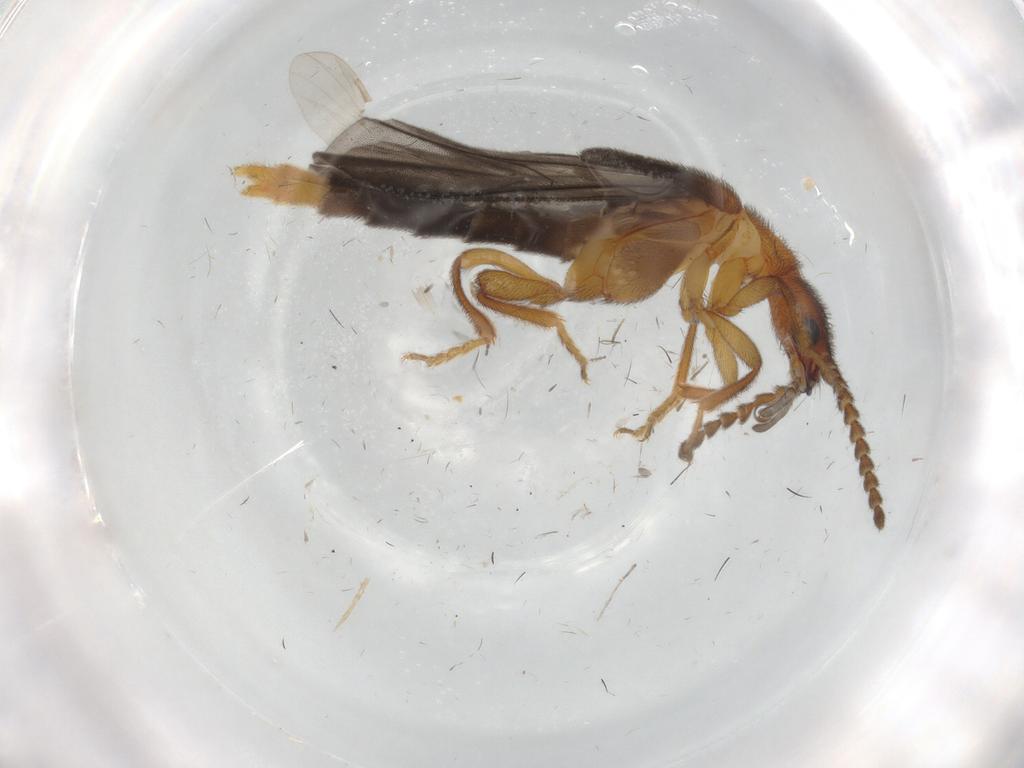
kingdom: Animalia
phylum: Arthropoda
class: Insecta
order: Coleoptera
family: Omethidae
